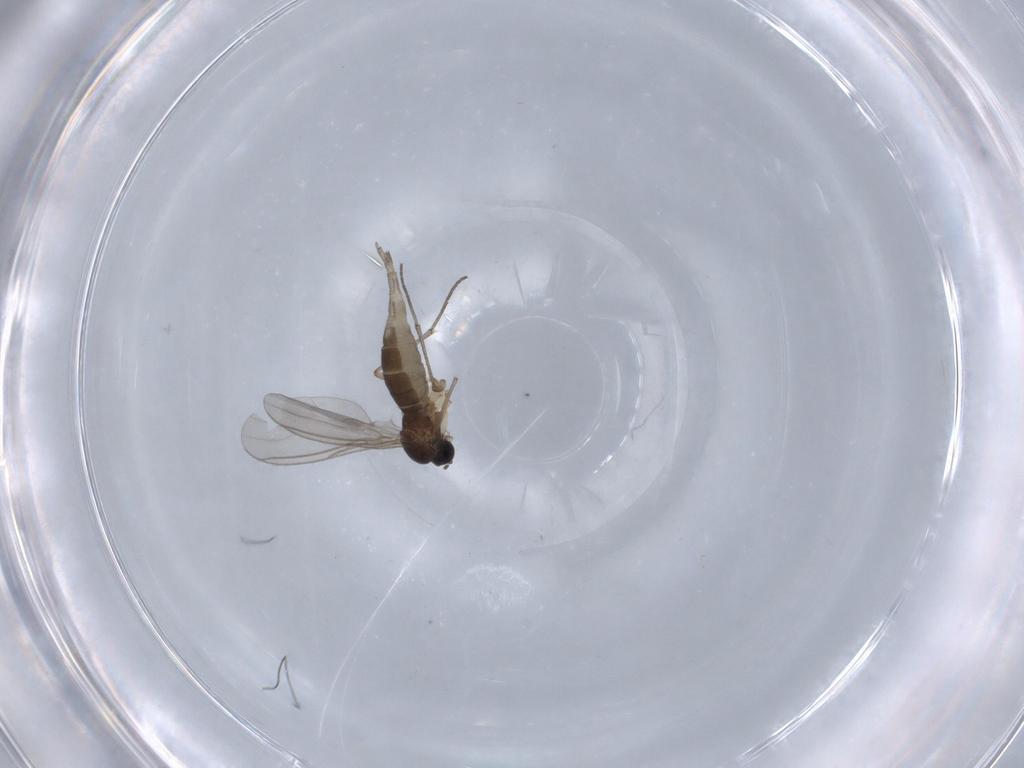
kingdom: Animalia
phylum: Arthropoda
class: Insecta
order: Diptera
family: Sciaridae
